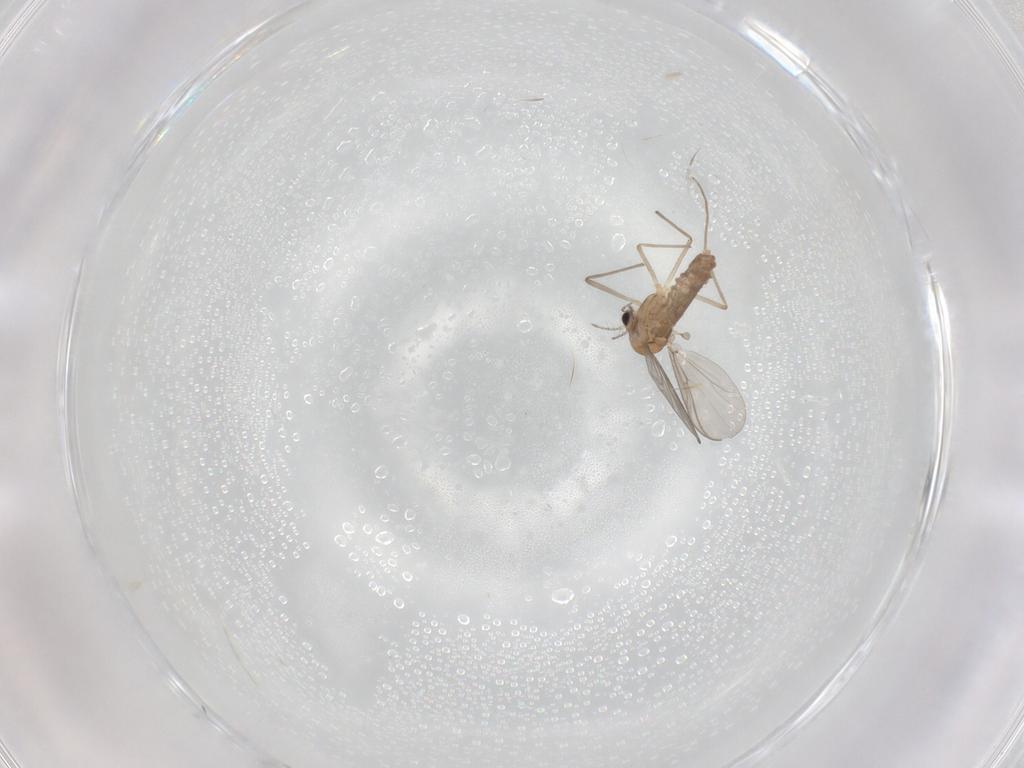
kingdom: Animalia
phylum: Arthropoda
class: Insecta
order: Diptera
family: Chironomidae
